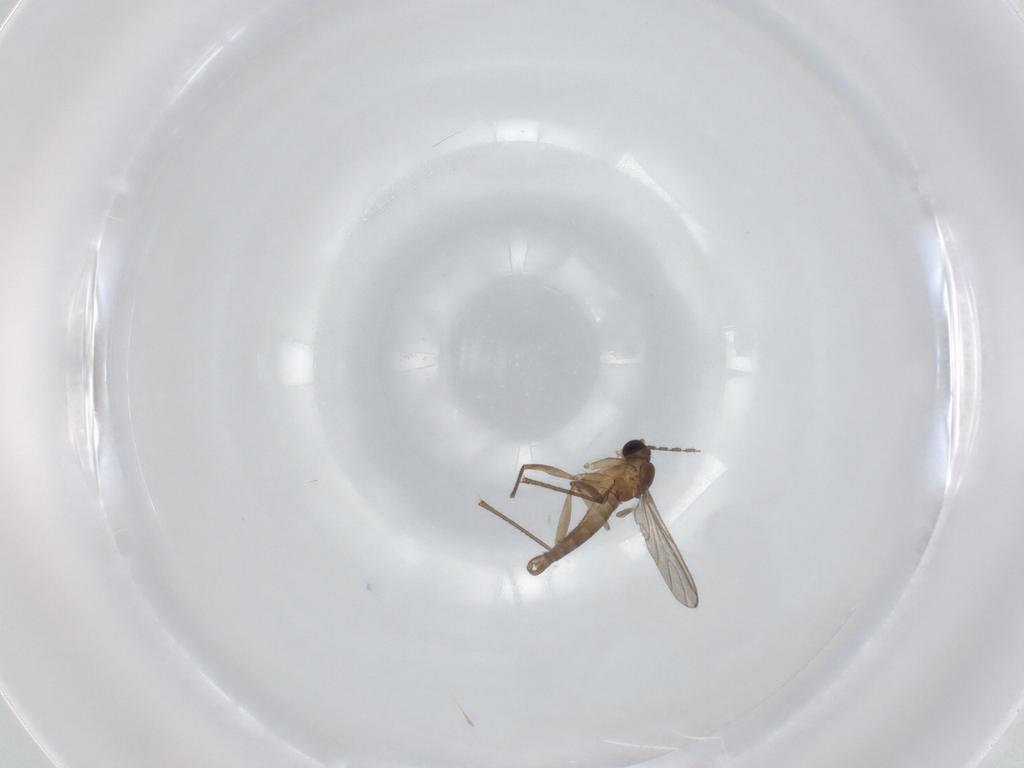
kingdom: Animalia
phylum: Arthropoda
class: Insecta
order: Diptera
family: Sciaridae
